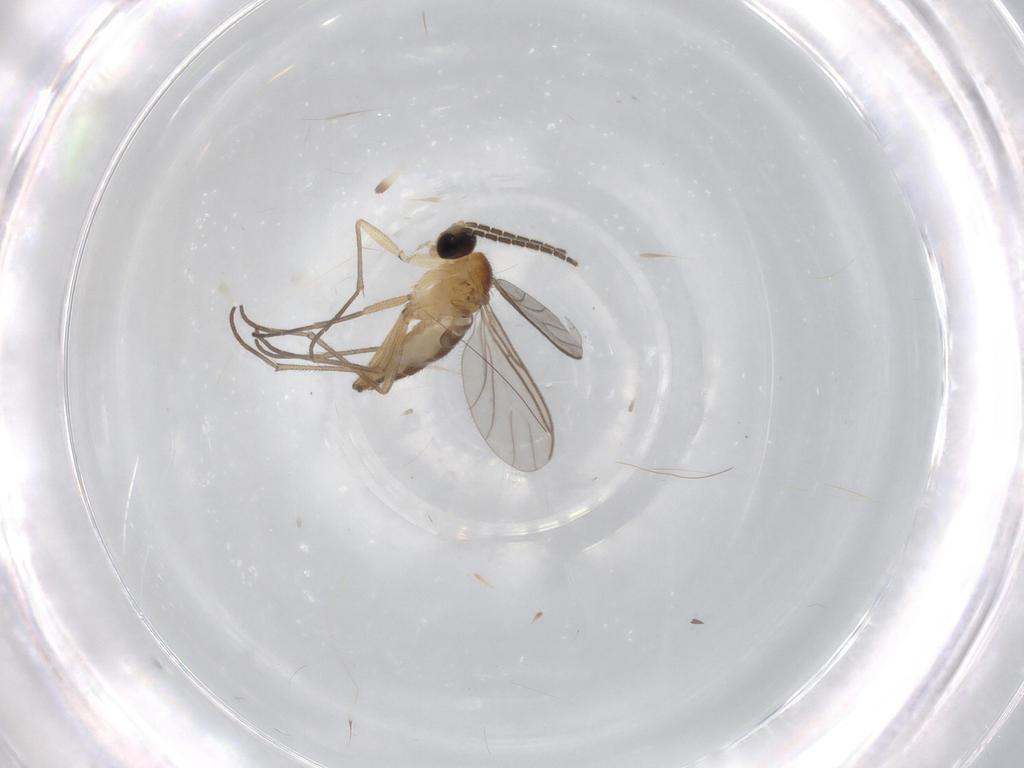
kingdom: Animalia
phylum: Arthropoda
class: Insecta
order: Diptera
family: Sciaridae
